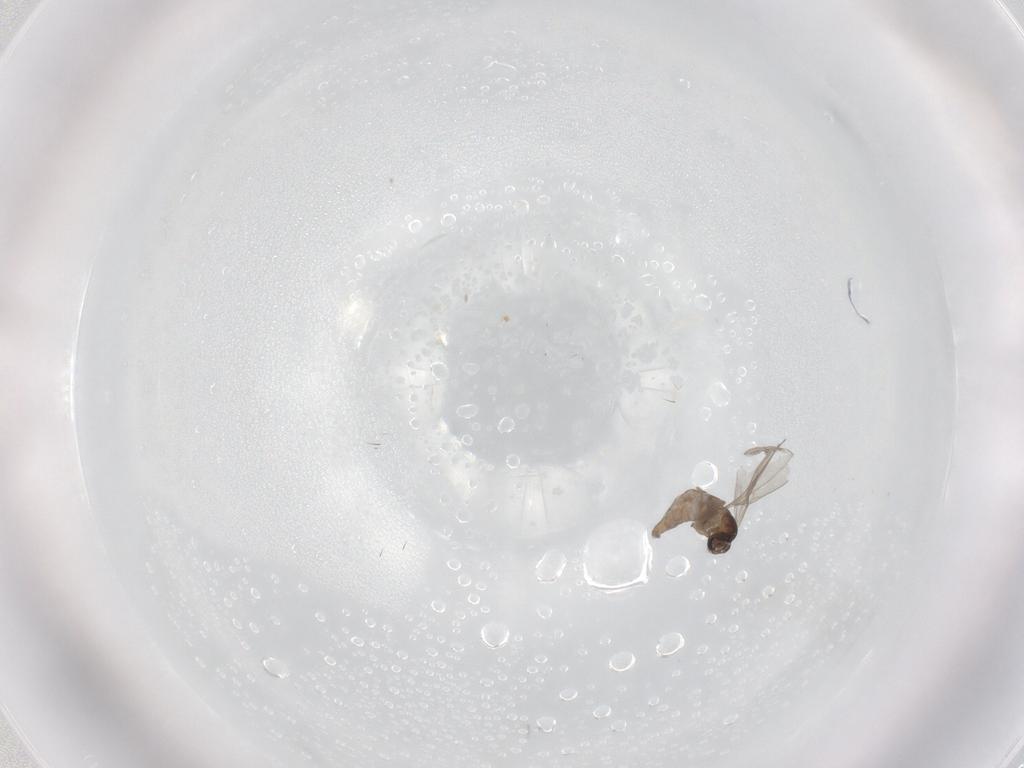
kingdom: Animalia
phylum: Arthropoda
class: Insecta
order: Diptera
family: Cecidomyiidae
